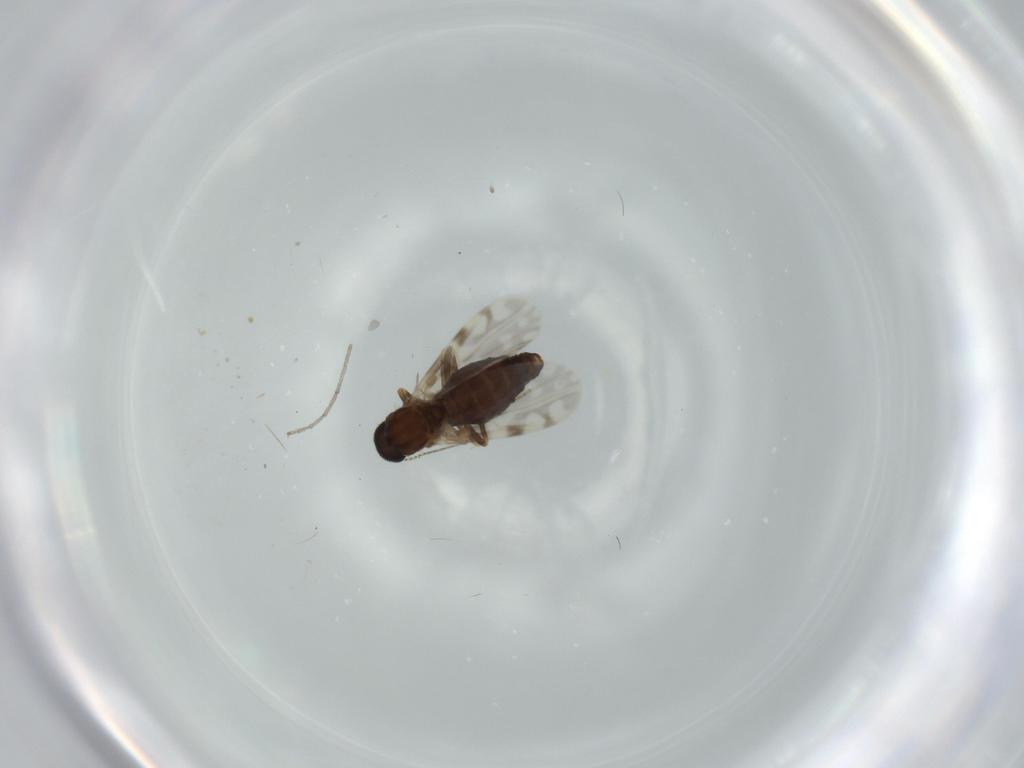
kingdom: Animalia
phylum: Arthropoda
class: Insecta
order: Diptera
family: Ceratopogonidae
